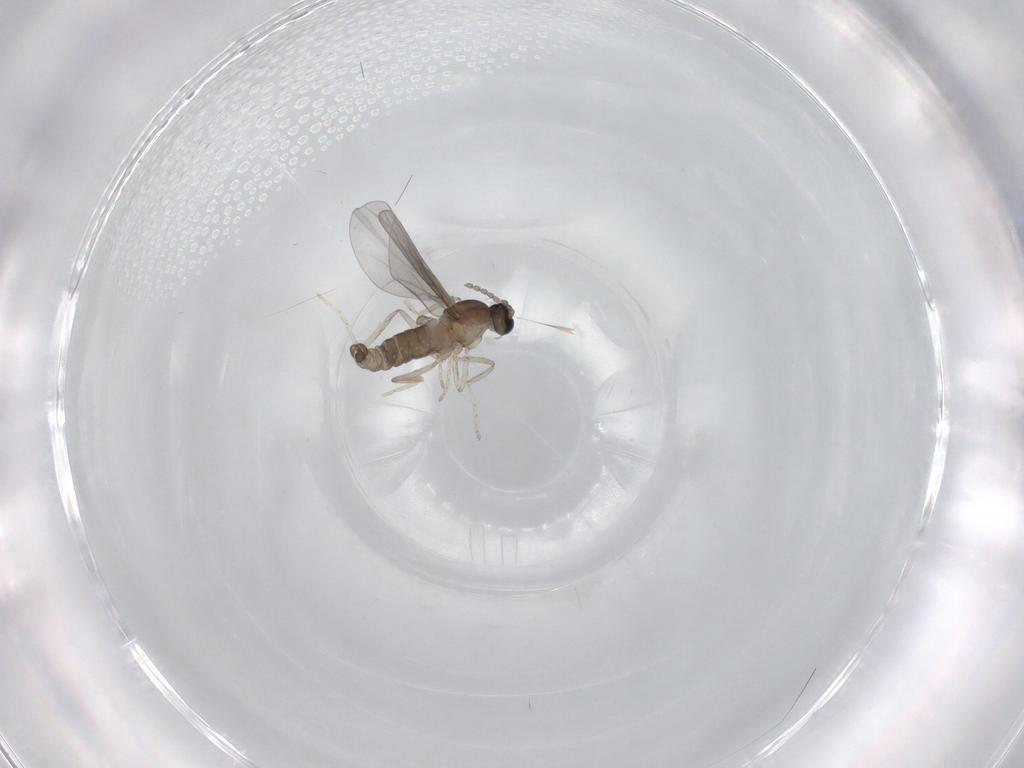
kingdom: Animalia
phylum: Arthropoda
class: Insecta
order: Diptera
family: Cecidomyiidae
